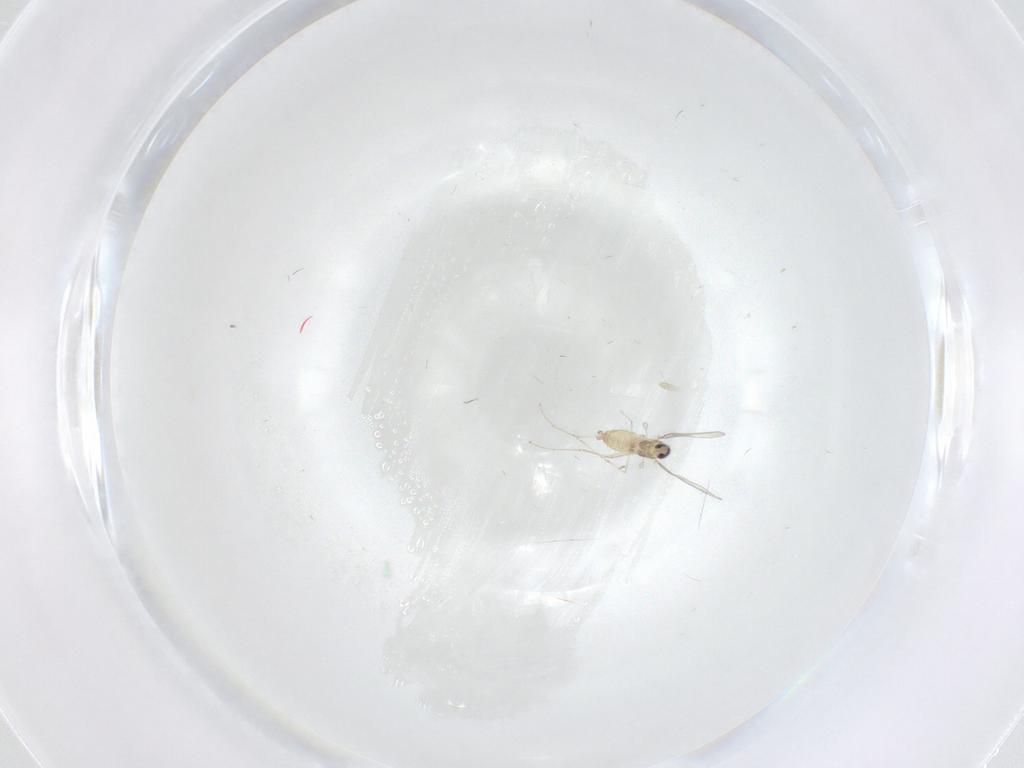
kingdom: Animalia
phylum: Arthropoda
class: Insecta
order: Diptera
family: Cecidomyiidae
